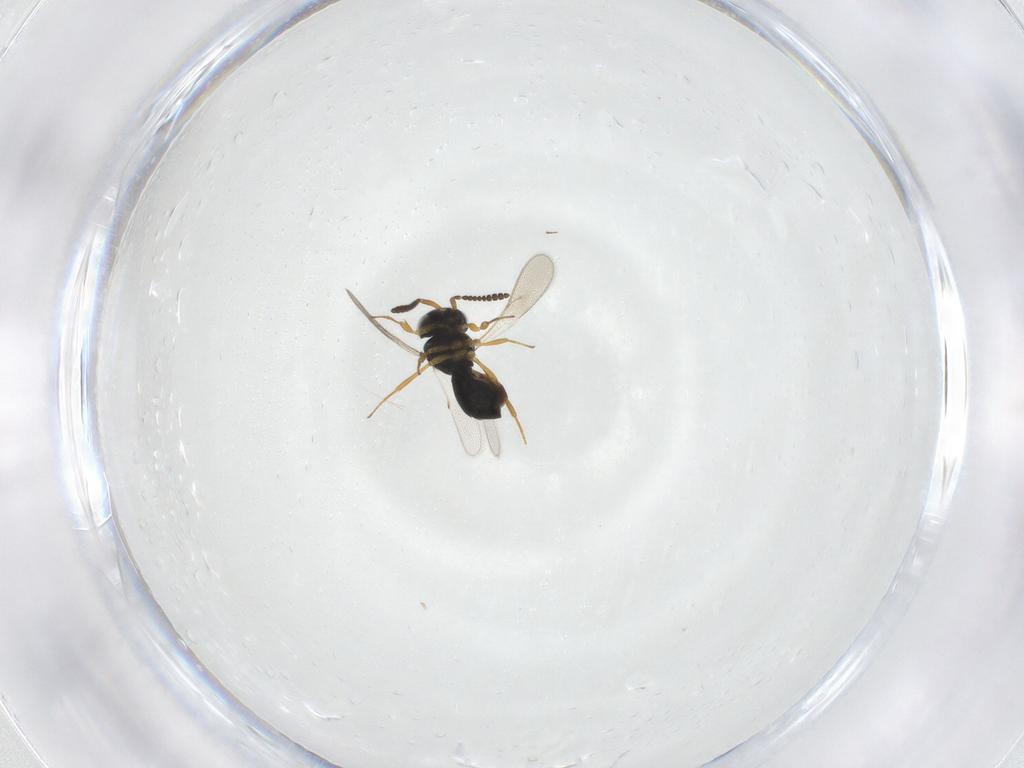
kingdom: Animalia
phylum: Arthropoda
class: Insecta
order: Hymenoptera
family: Scelionidae
